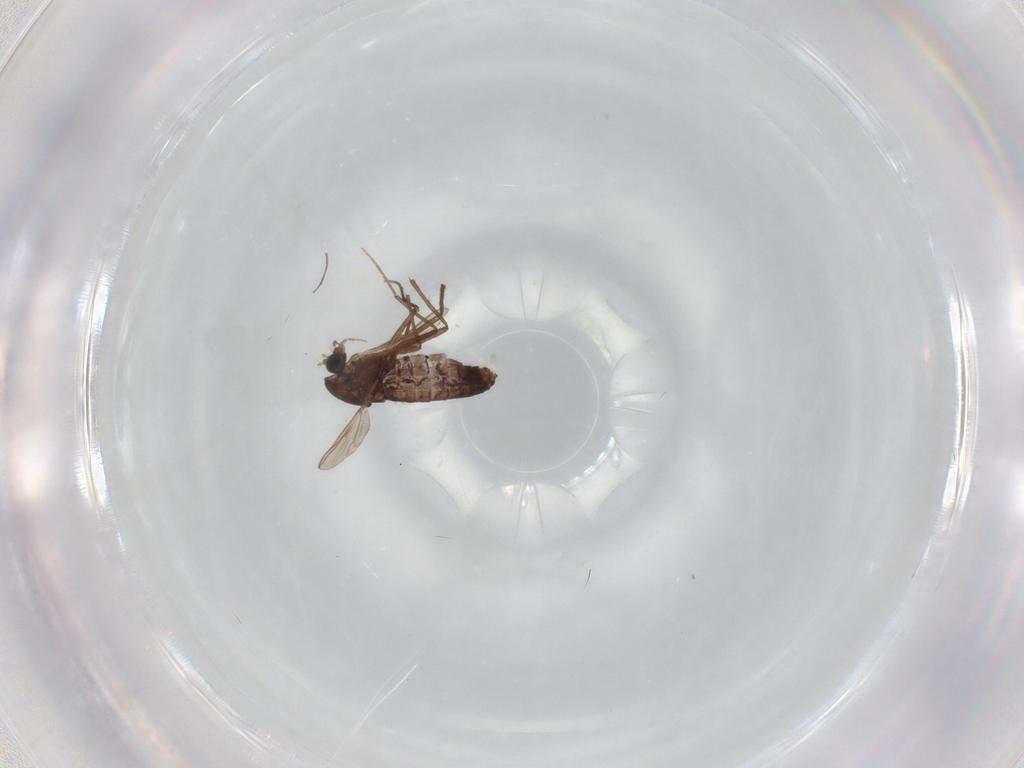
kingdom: Animalia
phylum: Arthropoda
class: Insecta
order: Diptera
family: Chironomidae
